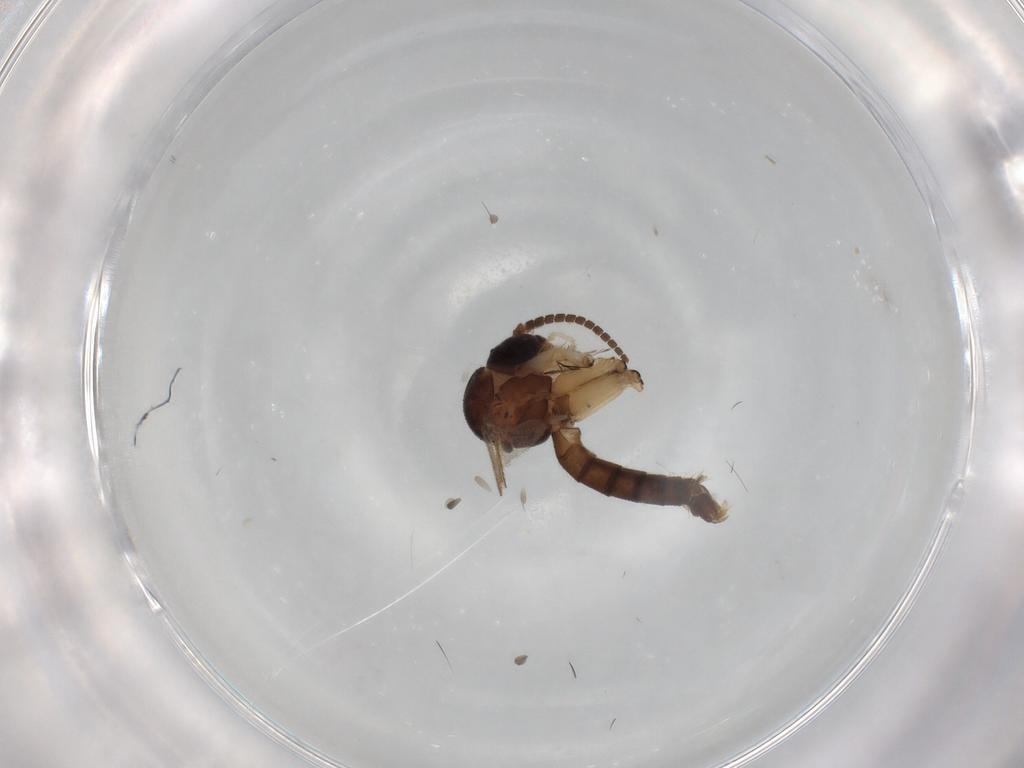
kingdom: Animalia
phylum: Arthropoda
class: Insecta
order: Diptera
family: Mycetophilidae
